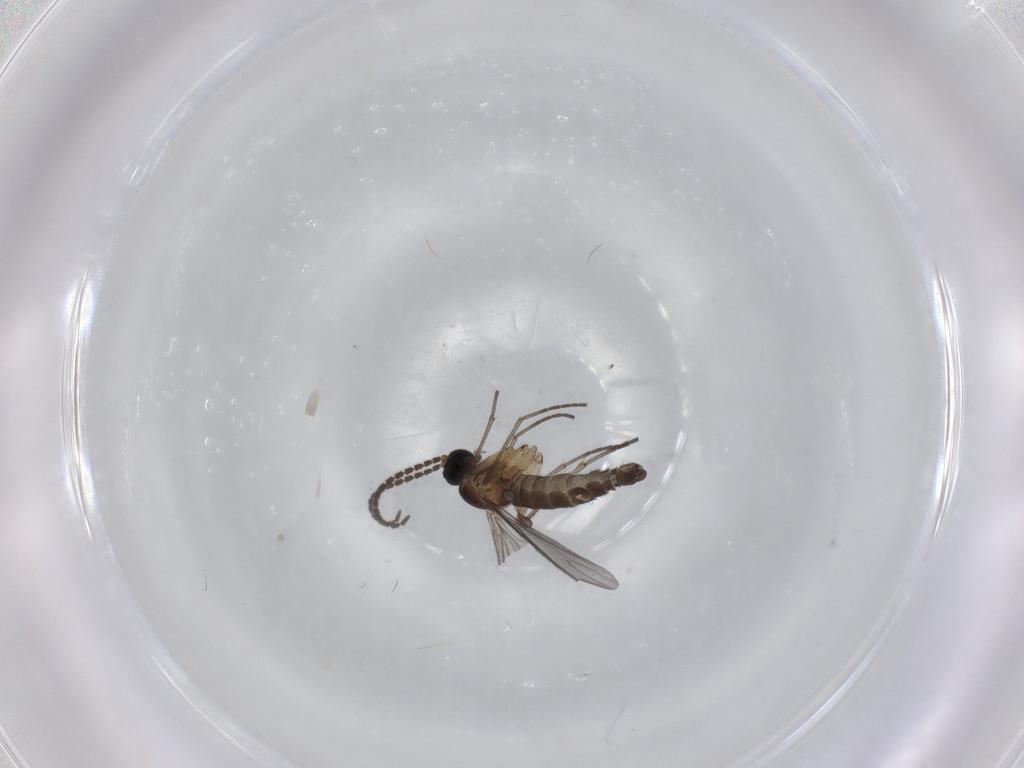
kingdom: Animalia
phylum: Arthropoda
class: Insecta
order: Diptera
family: Cecidomyiidae
